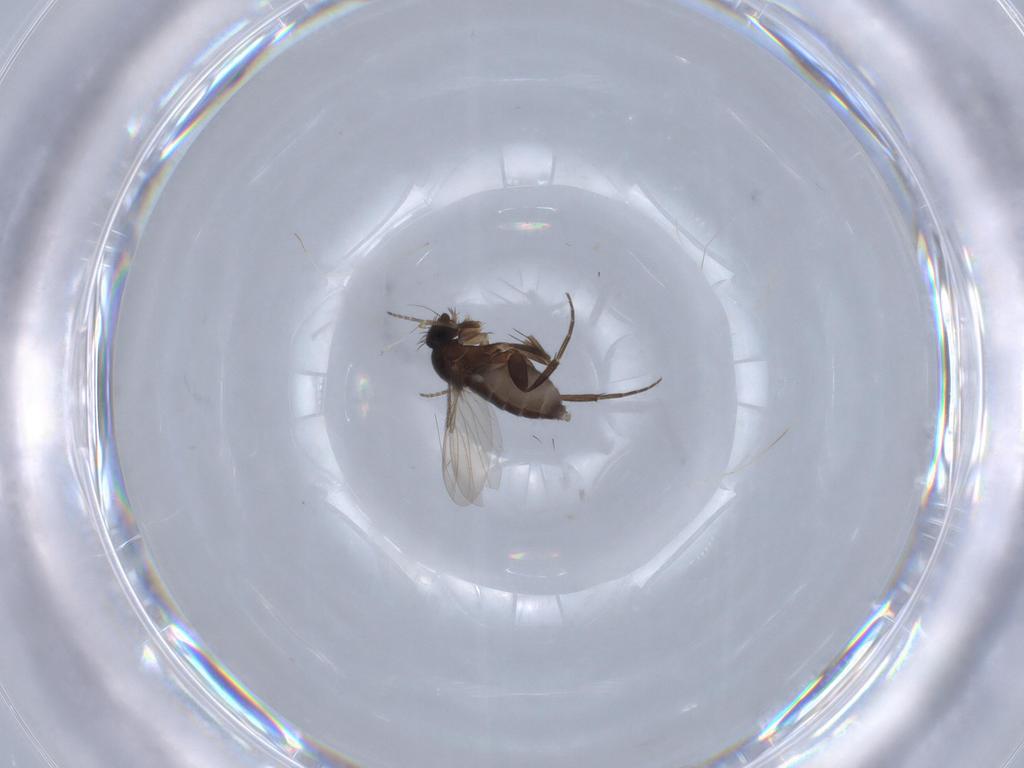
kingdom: Animalia
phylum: Arthropoda
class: Insecta
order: Diptera
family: Phoridae
